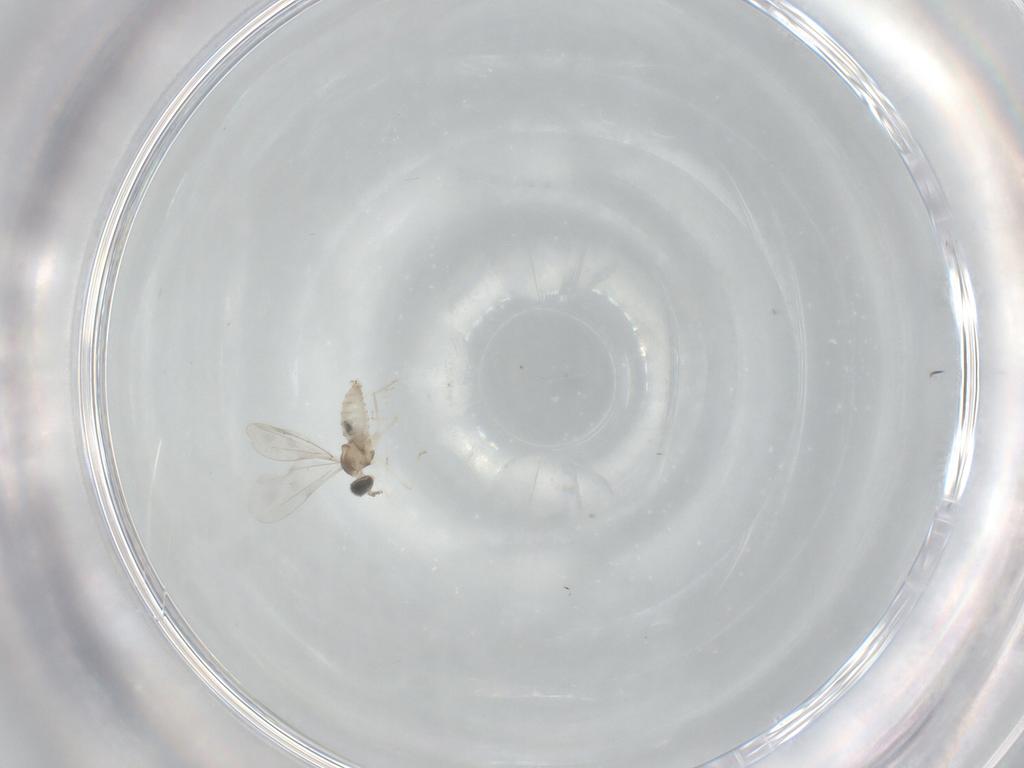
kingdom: Animalia
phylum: Arthropoda
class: Insecta
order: Diptera
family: Cecidomyiidae
